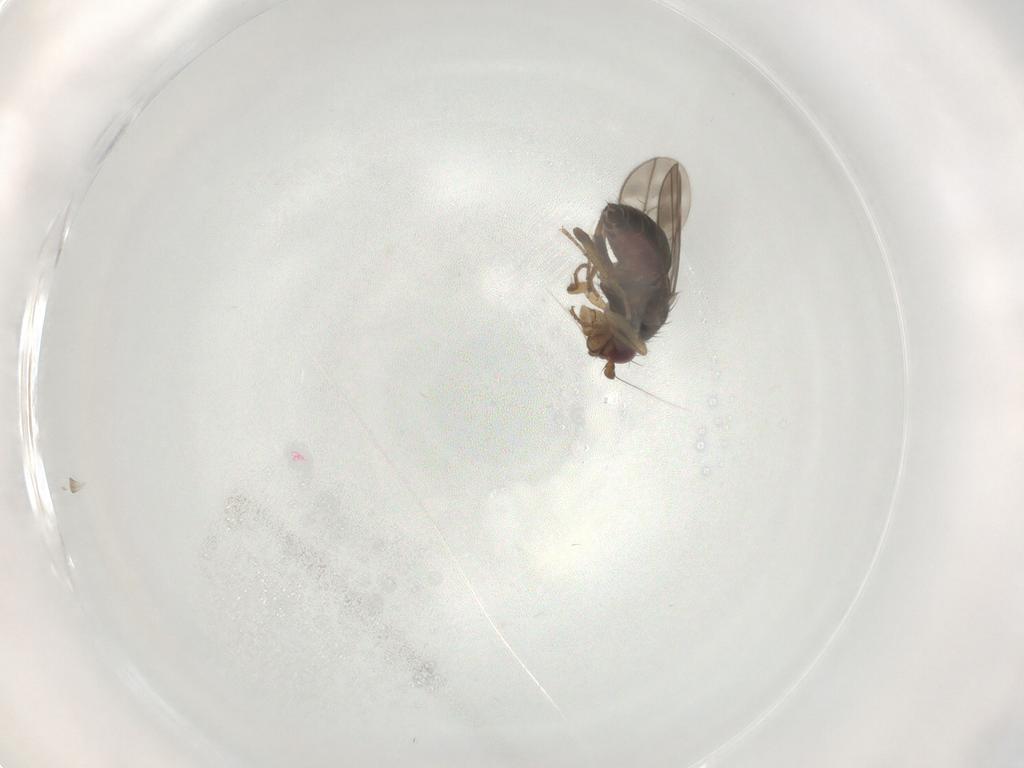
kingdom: Animalia
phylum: Arthropoda
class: Insecta
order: Diptera
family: Sphaeroceridae
